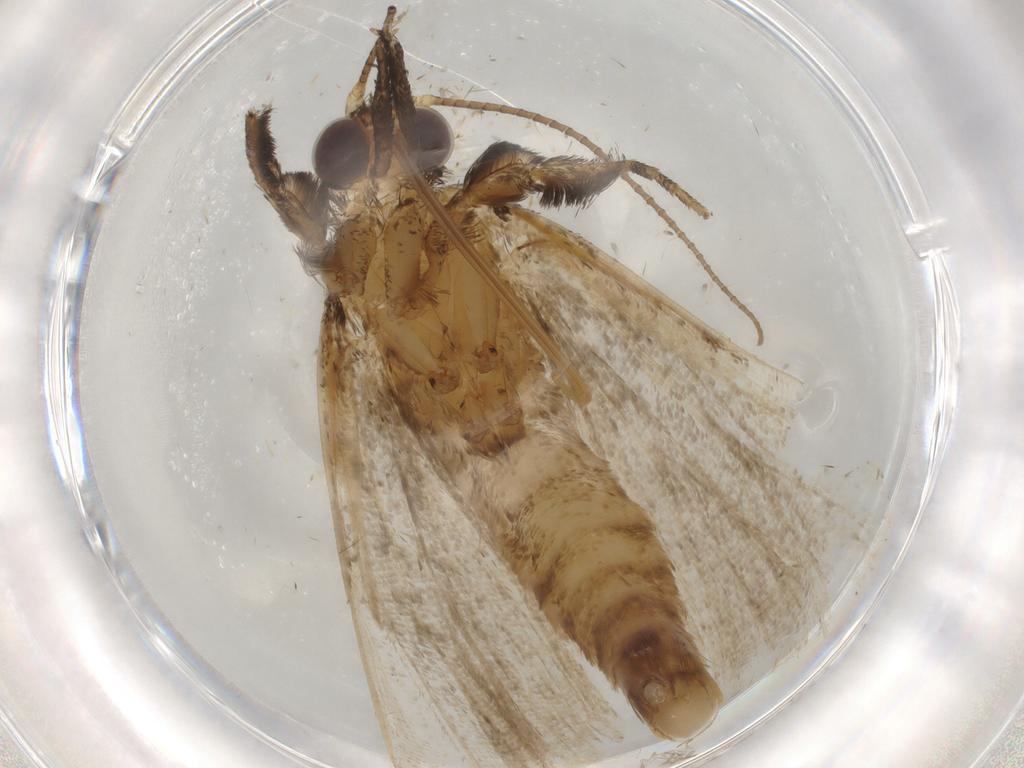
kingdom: Animalia
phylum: Arthropoda
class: Insecta
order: Lepidoptera
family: Erebidae
